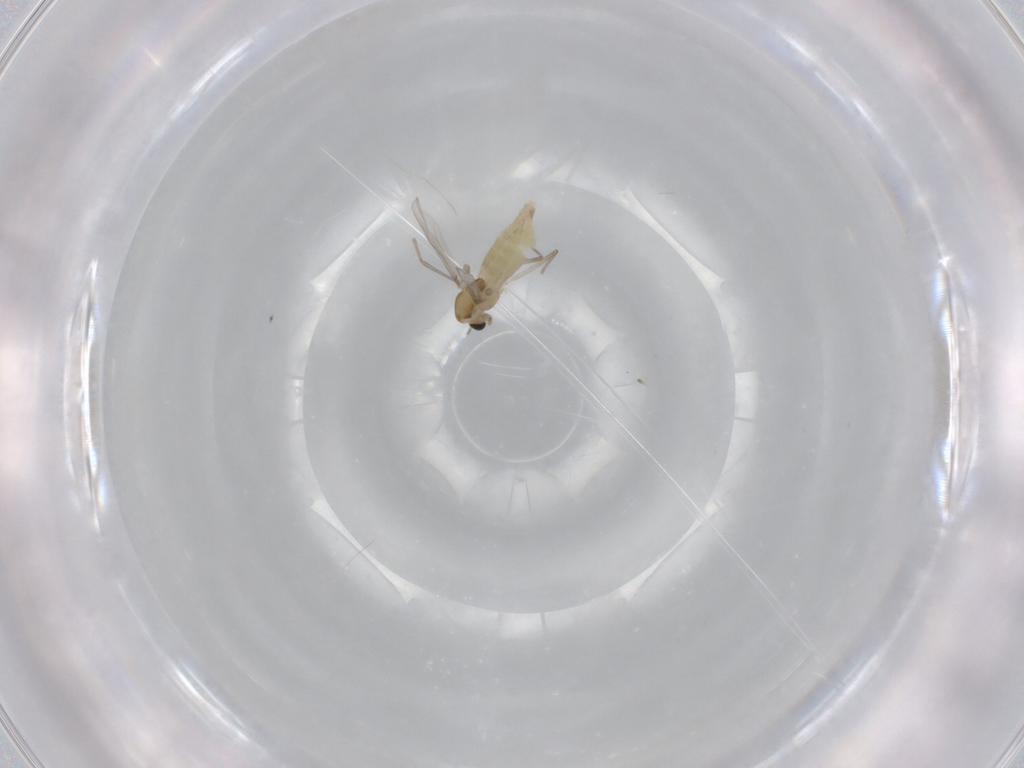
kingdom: Animalia
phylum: Arthropoda
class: Insecta
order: Diptera
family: Chironomidae
